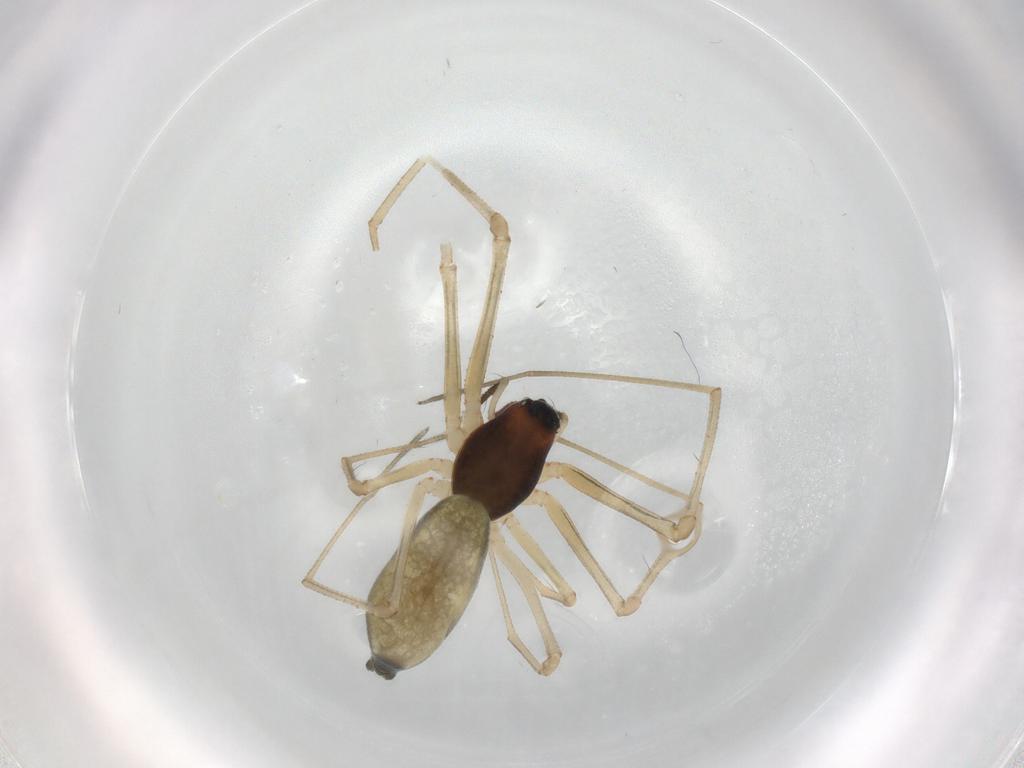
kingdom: Animalia
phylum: Arthropoda
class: Arachnida
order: Araneae
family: Linyphiidae
